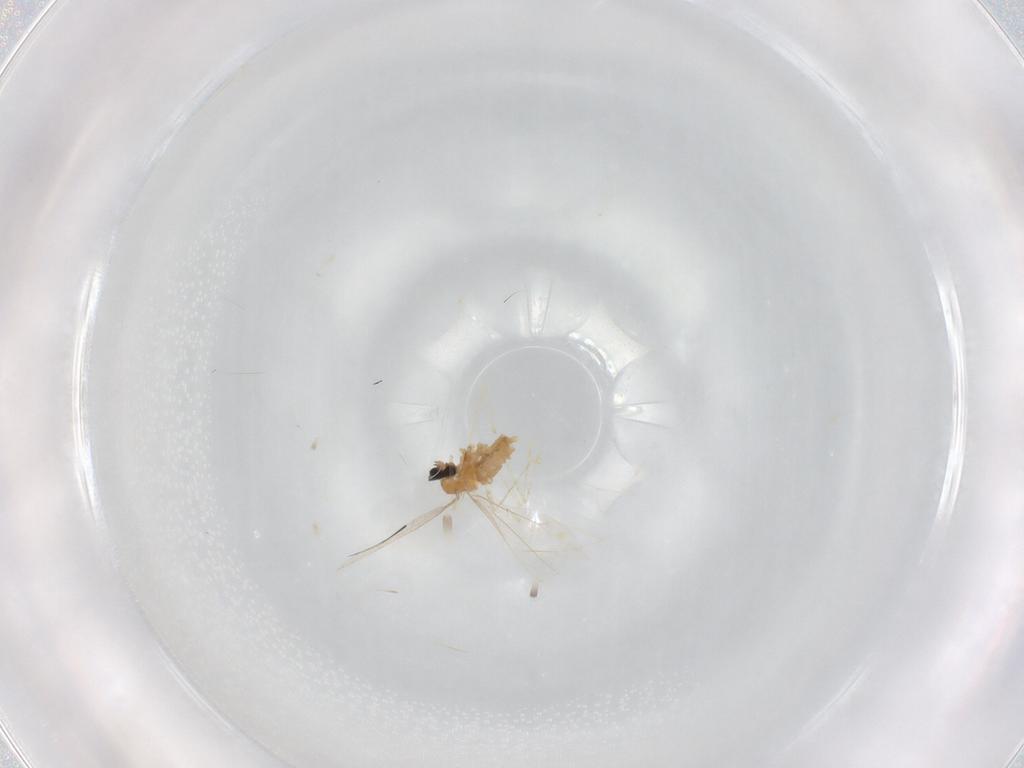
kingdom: Animalia
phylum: Arthropoda
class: Insecta
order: Diptera
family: Cecidomyiidae
